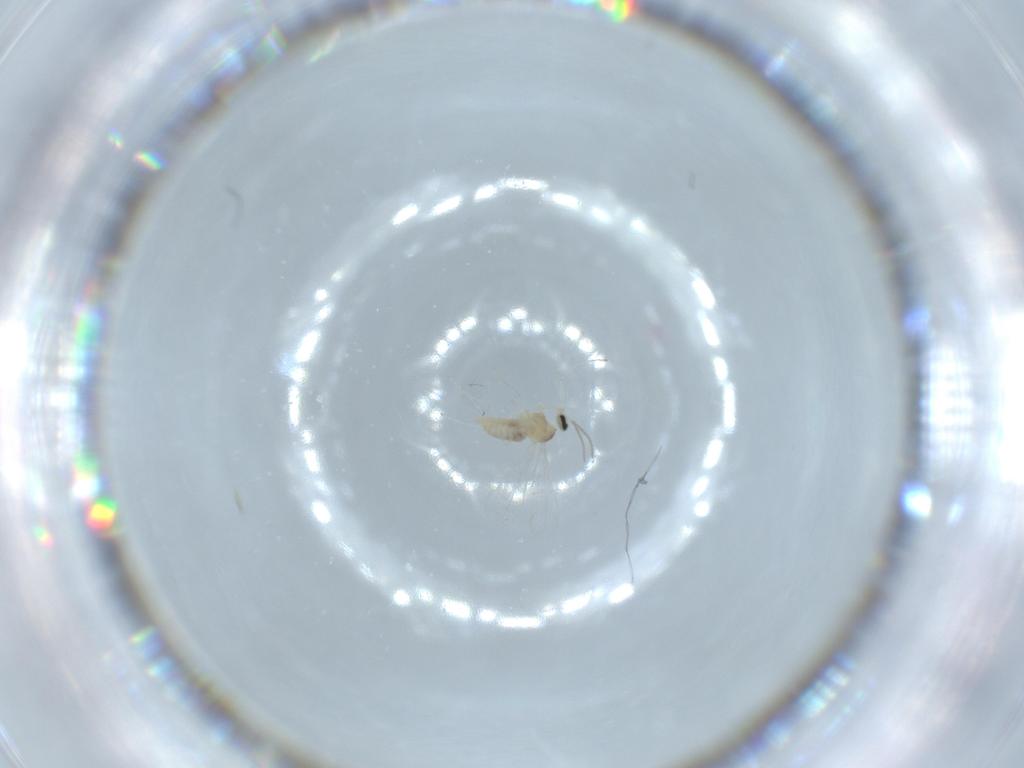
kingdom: Animalia
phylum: Arthropoda
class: Insecta
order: Diptera
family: Cecidomyiidae
